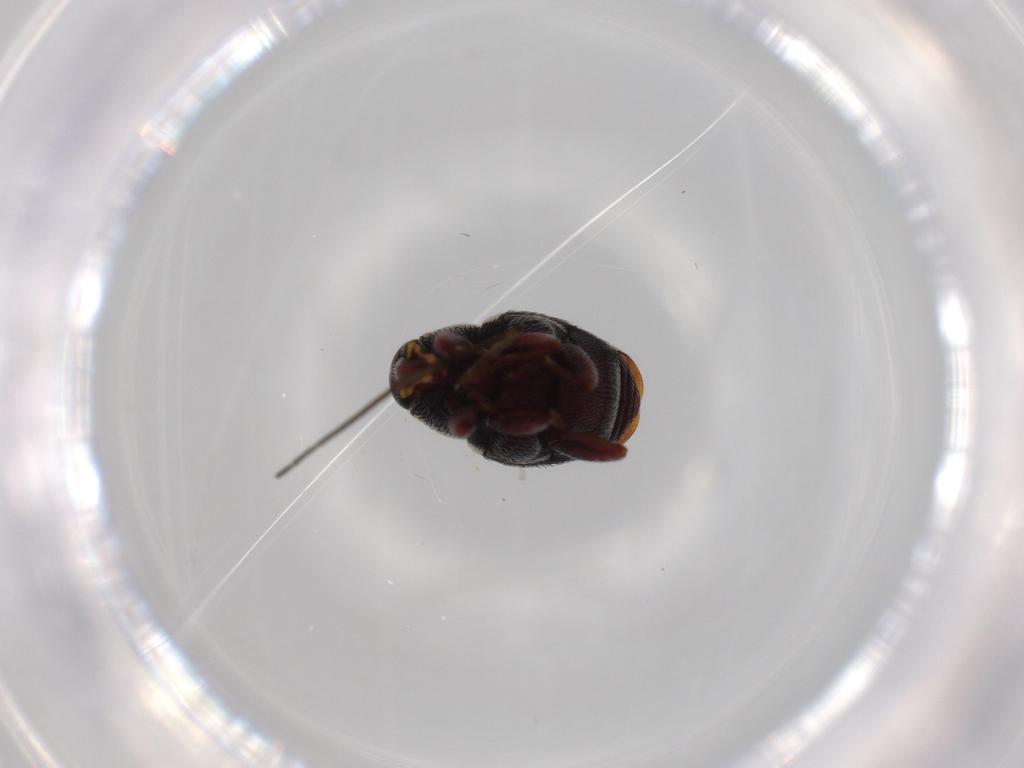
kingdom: Animalia
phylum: Arthropoda
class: Insecta
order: Coleoptera
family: Curculionidae
